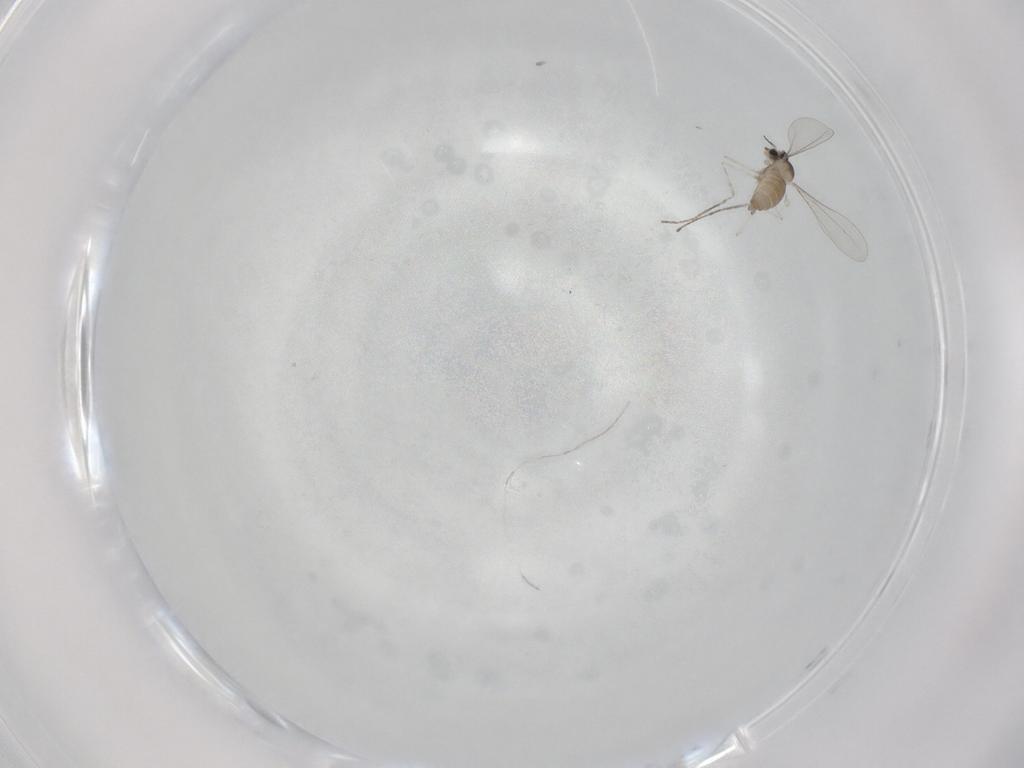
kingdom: Animalia
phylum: Arthropoda
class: Insecta
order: Diptera
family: Cecidomyiidae
